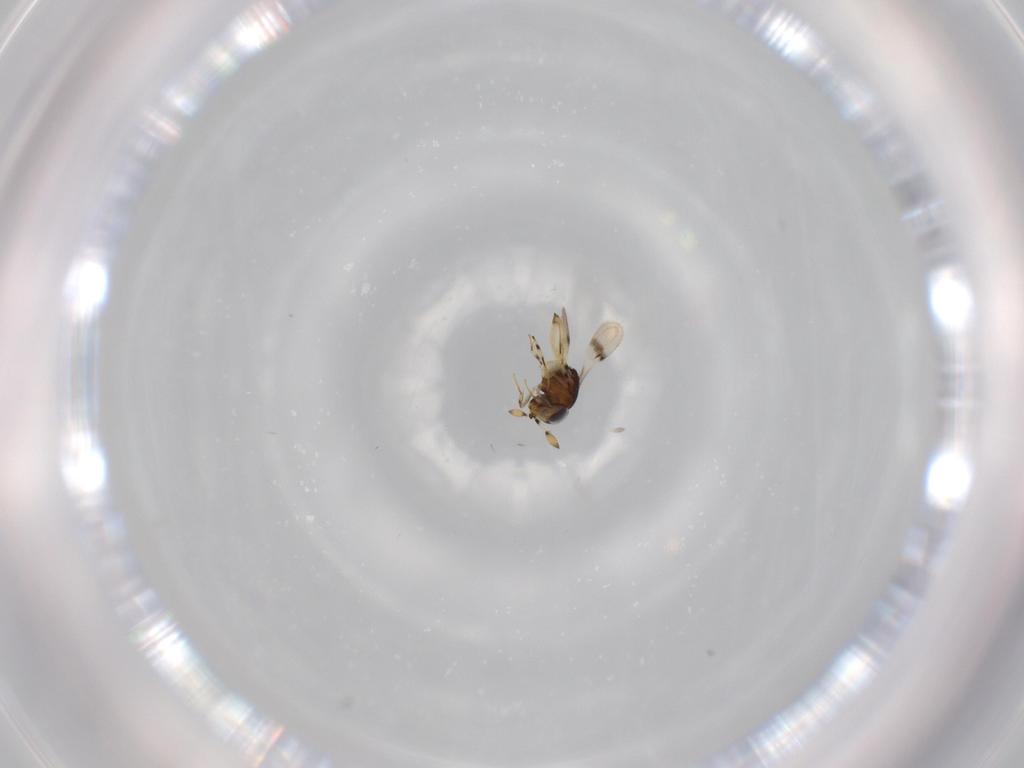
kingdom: Animalia
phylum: Arthropoda
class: Insecta
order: Hymenoptera
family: Scelionidae
